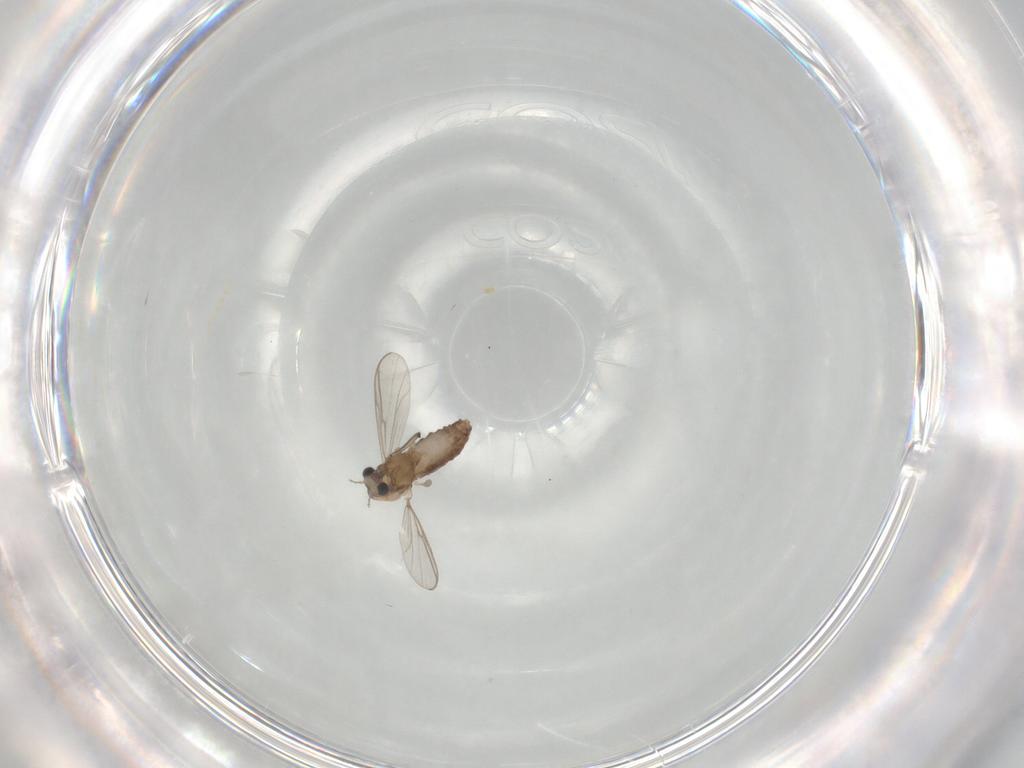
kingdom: Animalia
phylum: Arthropoda
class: Insecta
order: Diptera
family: Chironomidae
